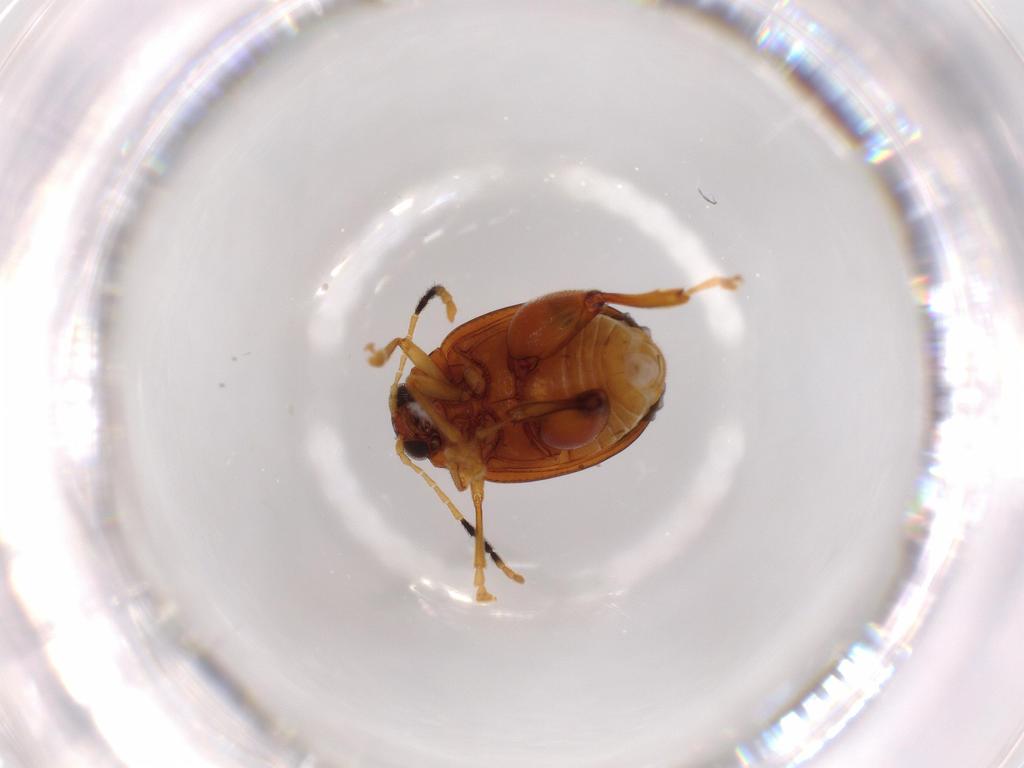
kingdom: Animalia
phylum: Arthropoda
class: Insecta
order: Coleoptera
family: Chrysomelidae
